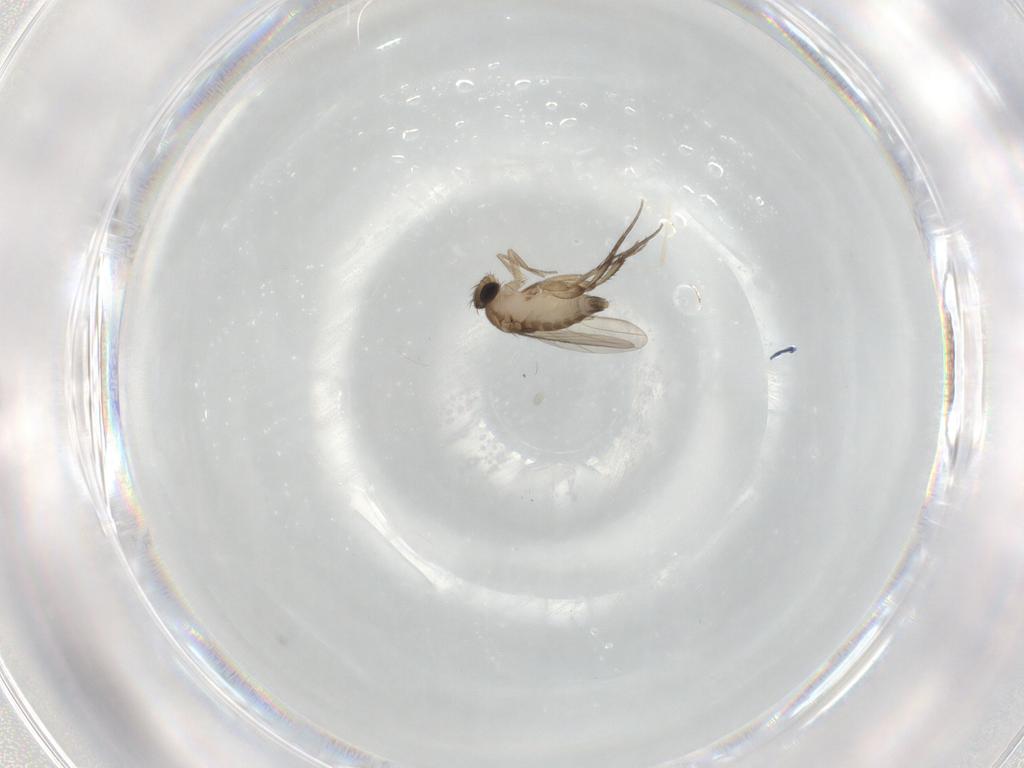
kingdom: Animalia
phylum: Arthropoda
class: Insecta
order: Diptera
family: Phoridae
